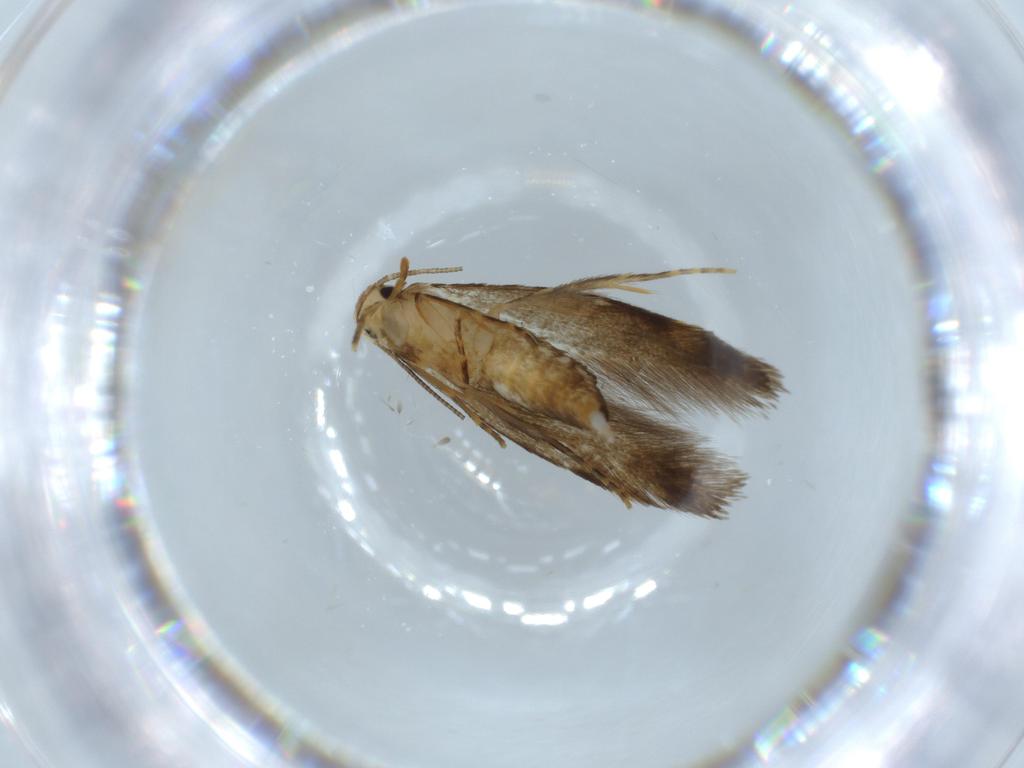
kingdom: Animalia
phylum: Arthropoda
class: Insecta
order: Lepidoptera
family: Tineidae
